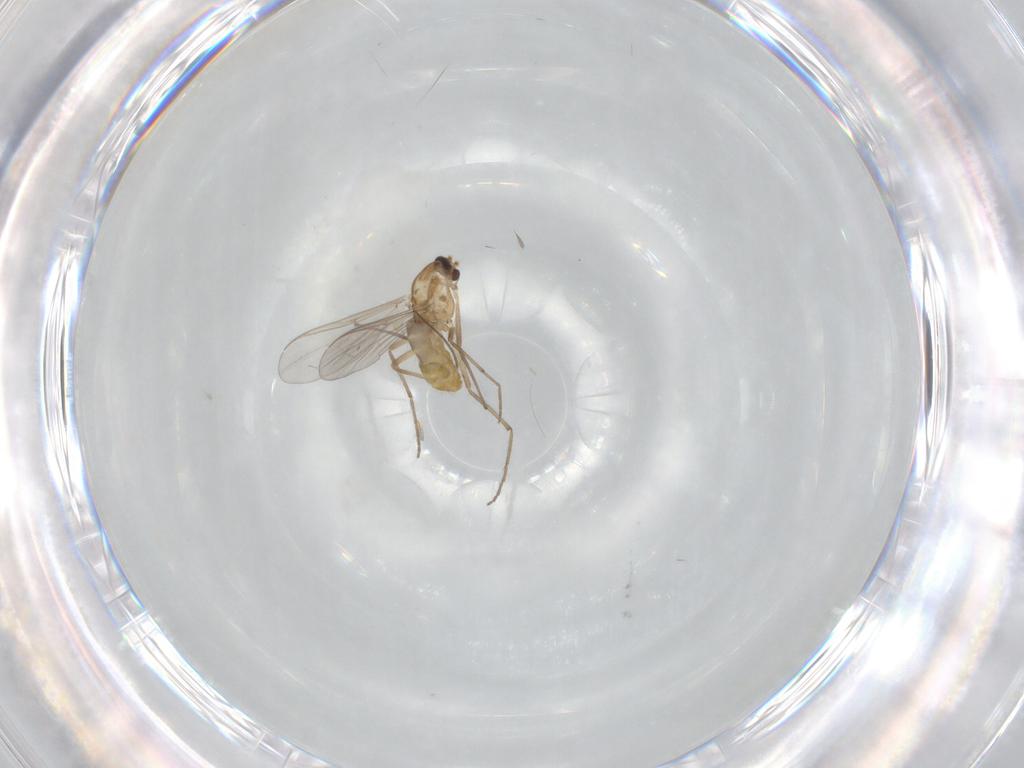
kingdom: Animalia
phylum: Arthropoda
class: Insecta
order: Diptera
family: Chironomidae
